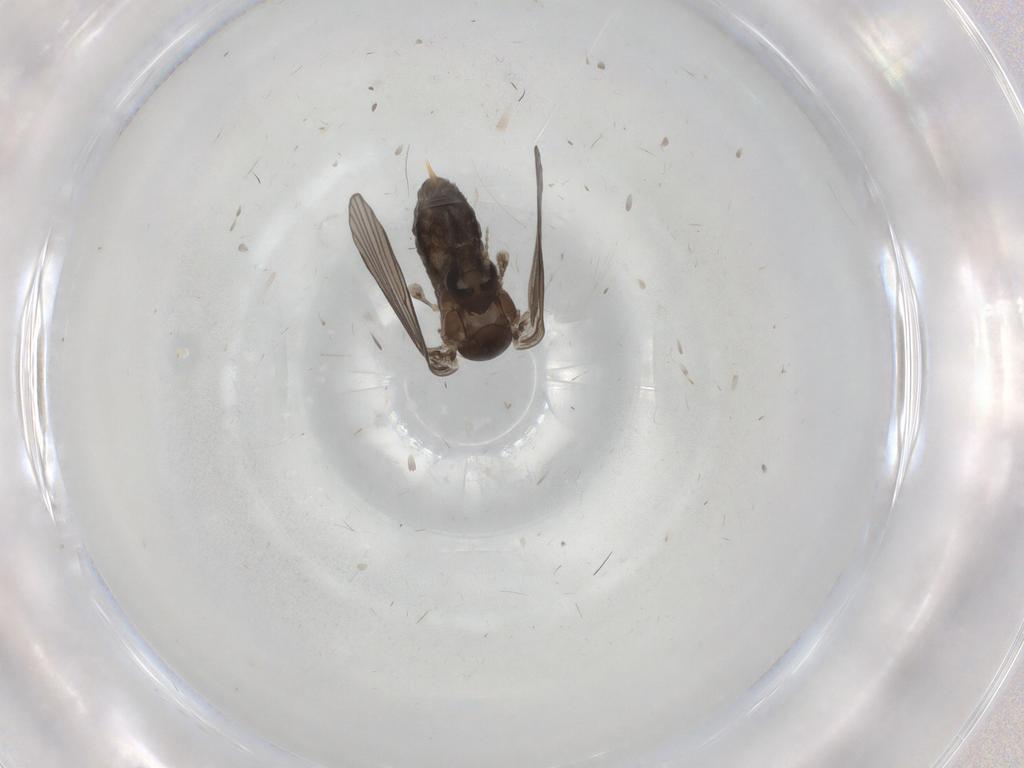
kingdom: Animalia
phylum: Arthropoda
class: Insecta
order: Diptera
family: Psychodidae
